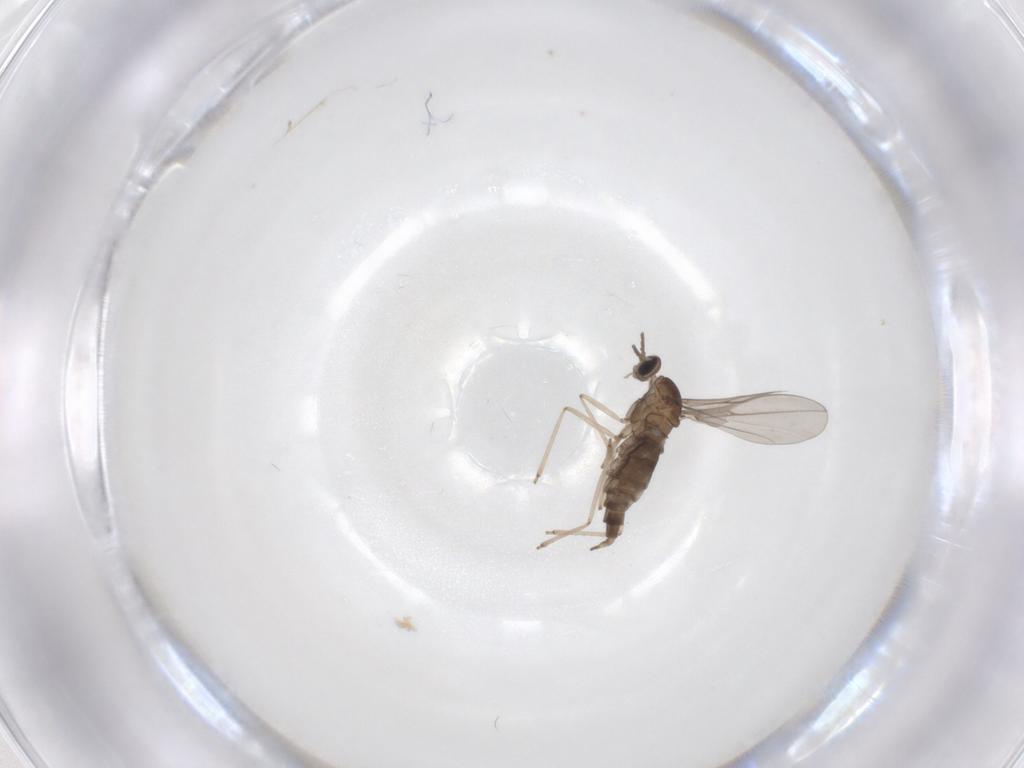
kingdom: Animalia
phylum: Arthropoda
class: Insecta
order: Diptera
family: Cecidomyiidae
